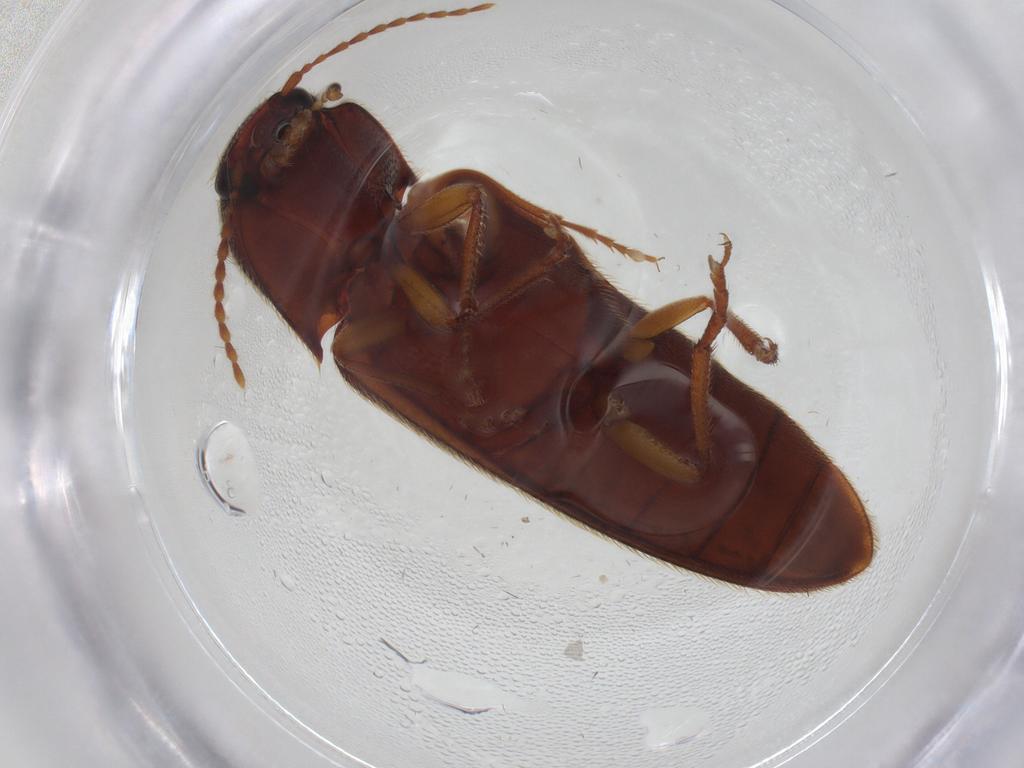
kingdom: Animalia
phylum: Arthropoda
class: Insecta
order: Coleoptera
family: Elateridae
